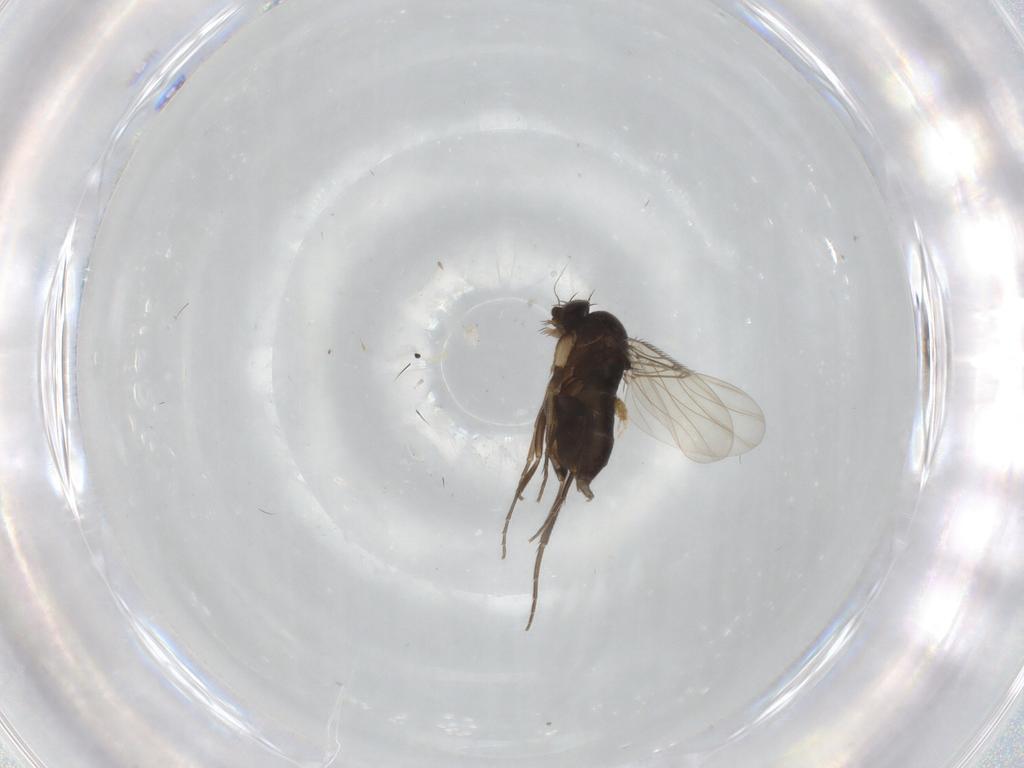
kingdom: Animalia
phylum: Arthropoda
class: Insecta
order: Diptera
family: Phoridae
